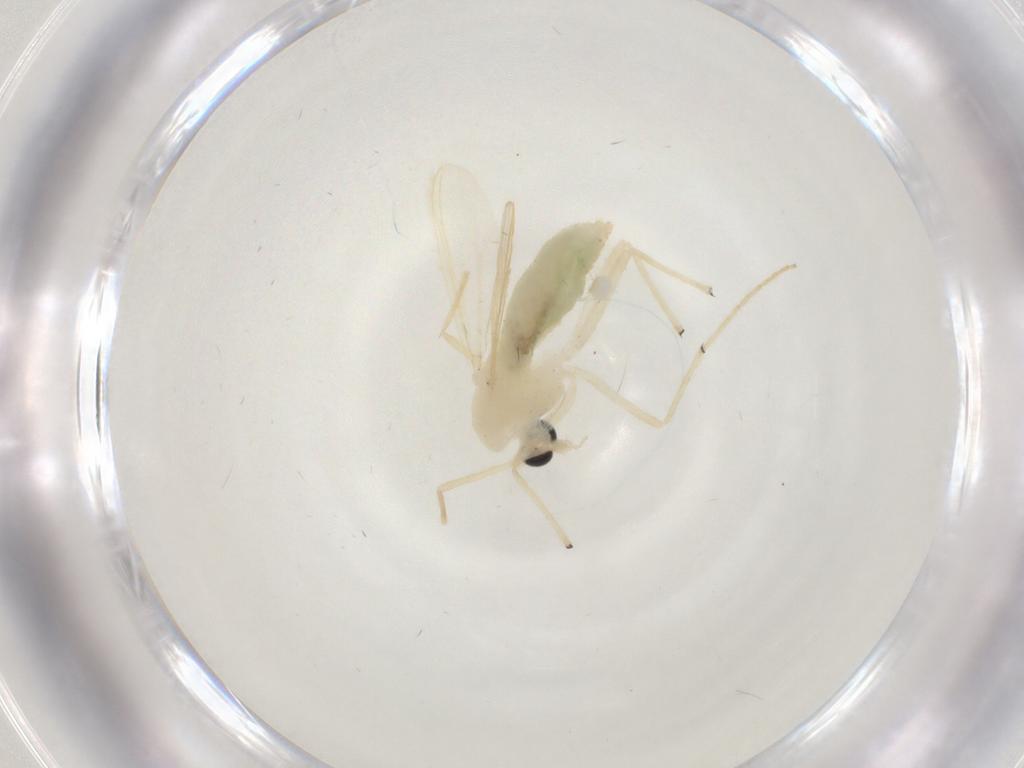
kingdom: Animalia
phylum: Arthropoda
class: Insecta
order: Diptera
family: Chironomidae
